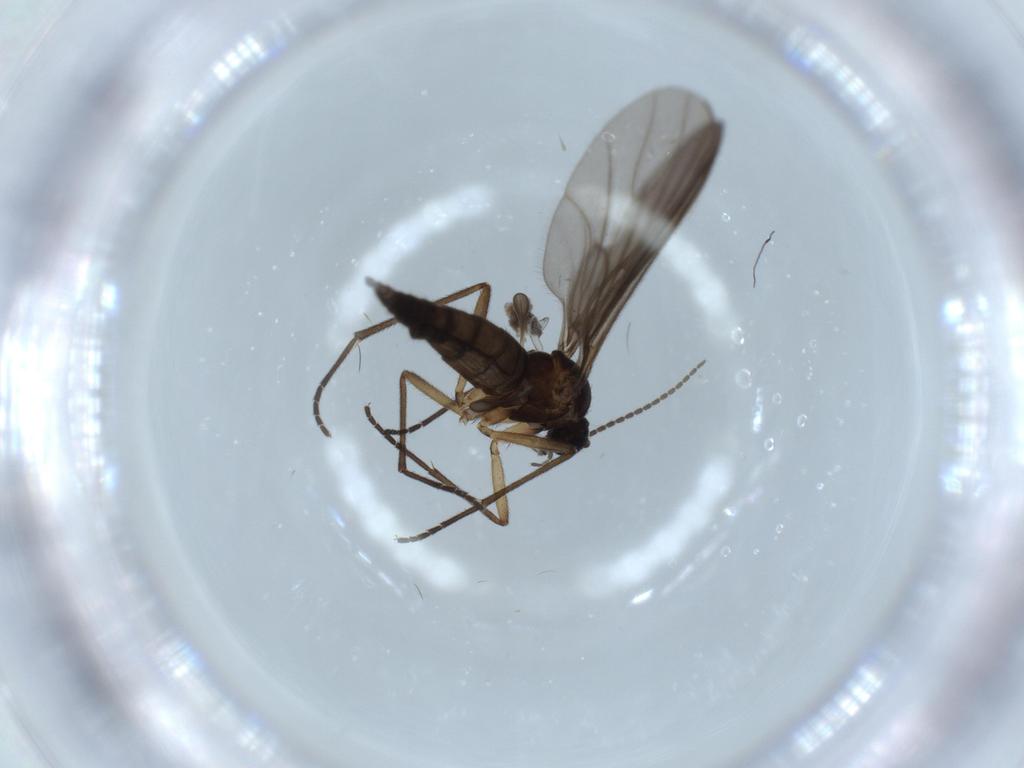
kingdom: Animalia
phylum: Arthropoda
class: Insecta
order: Diptera
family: Sciaridae
